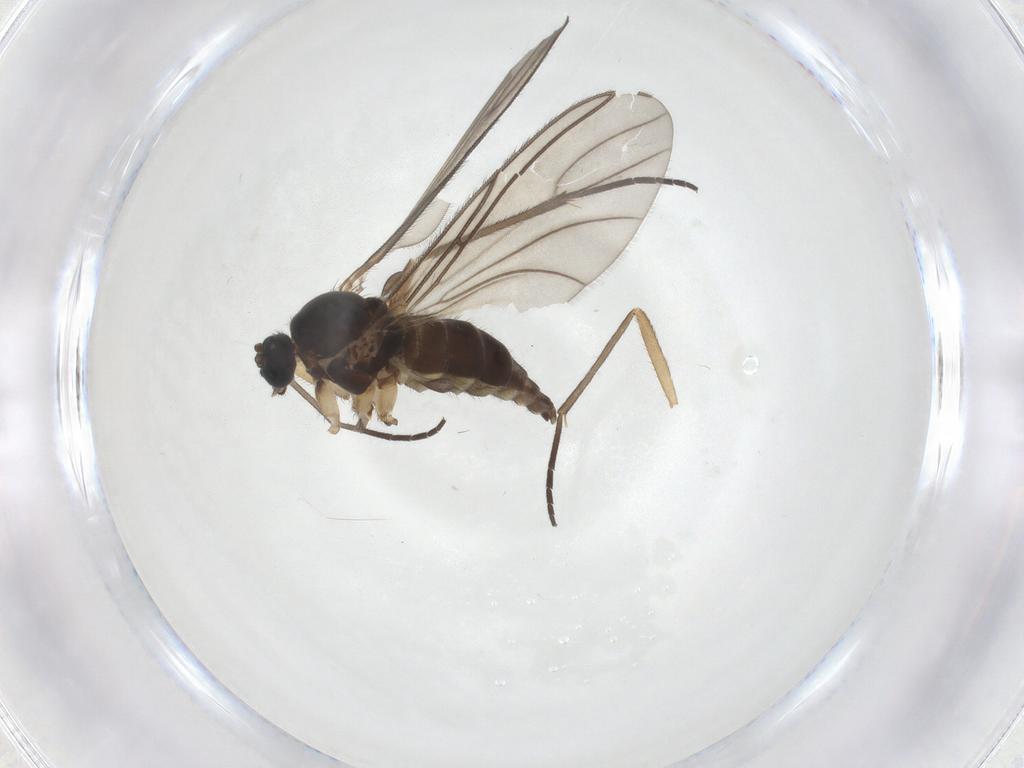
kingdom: Animalia
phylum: Arthropoda
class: Insecta
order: Diptera
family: Sciaridae
